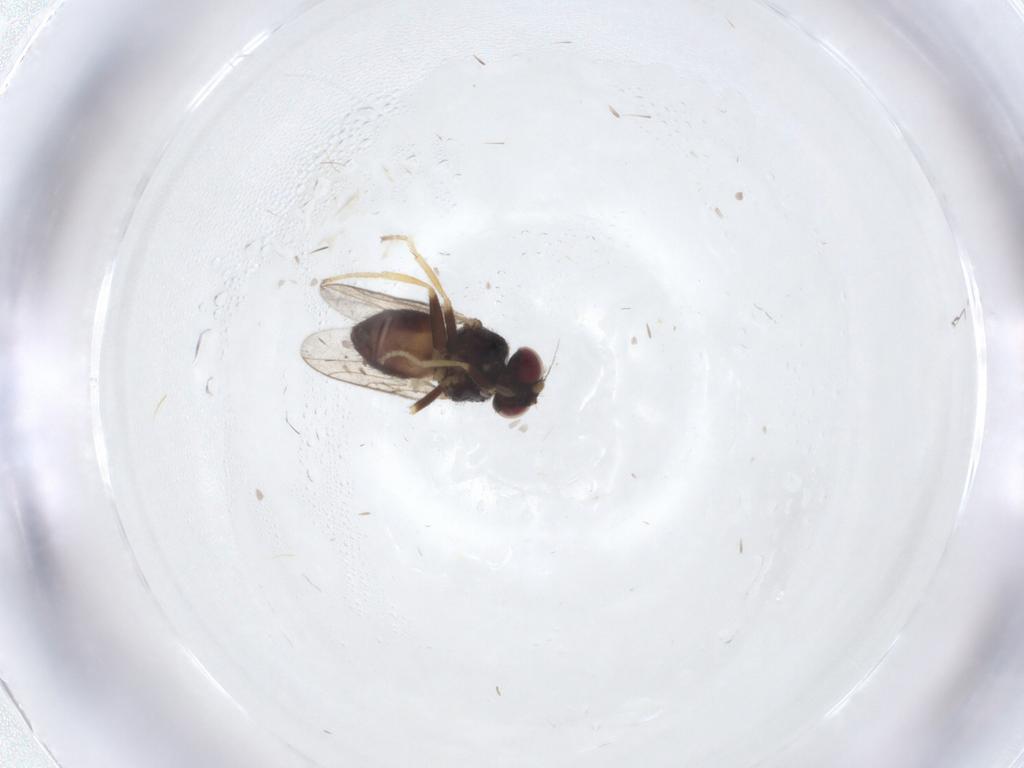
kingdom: Animalia
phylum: Arthropoda
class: Insecta
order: Diptera
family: Chloropidae
